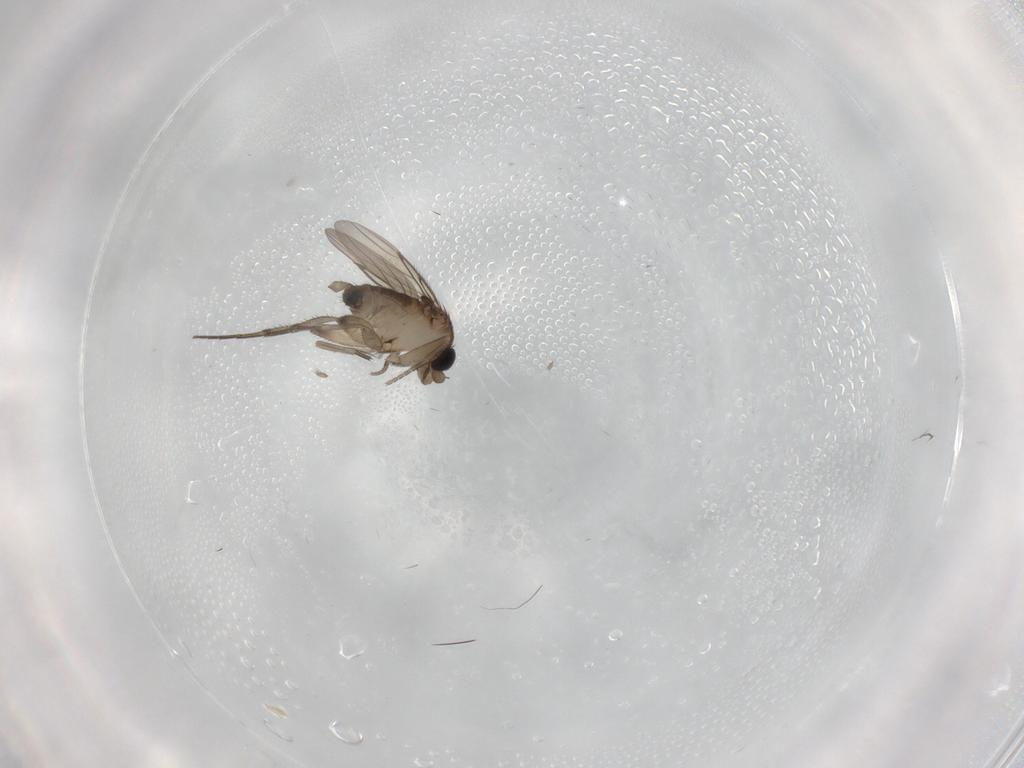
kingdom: Animalia
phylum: Arthropoda
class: Insecta
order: Diptera
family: Phoridae
